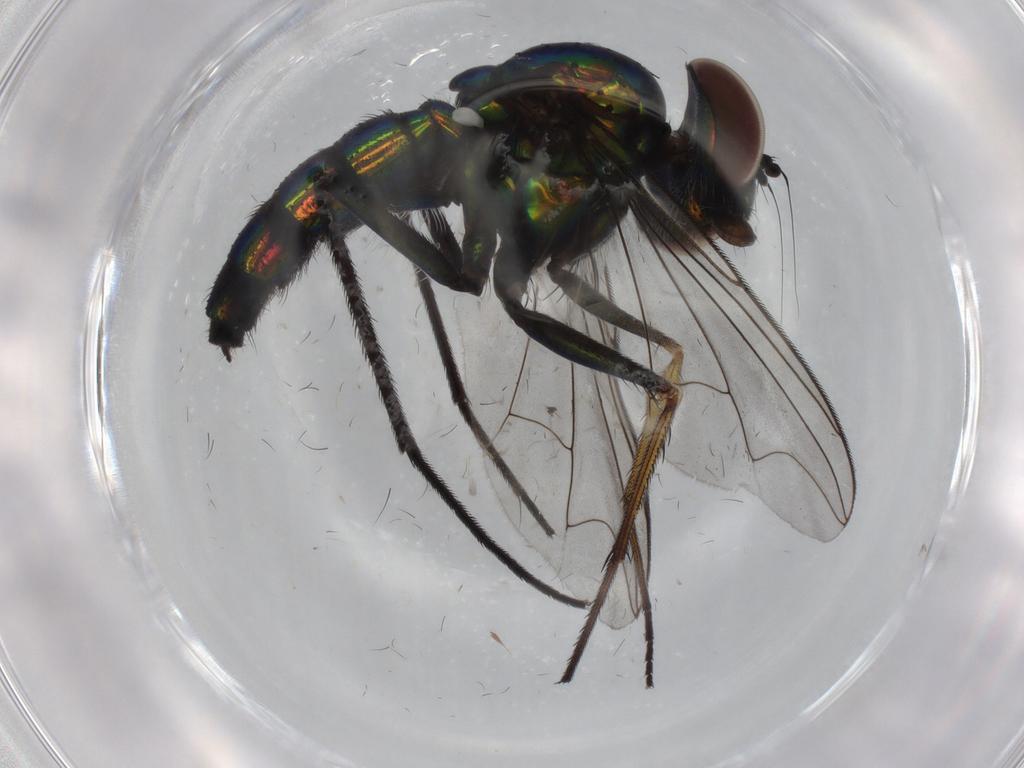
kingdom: Animalia
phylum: Arthropoda
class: Insecta
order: Diptera
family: Dolichopodidae
